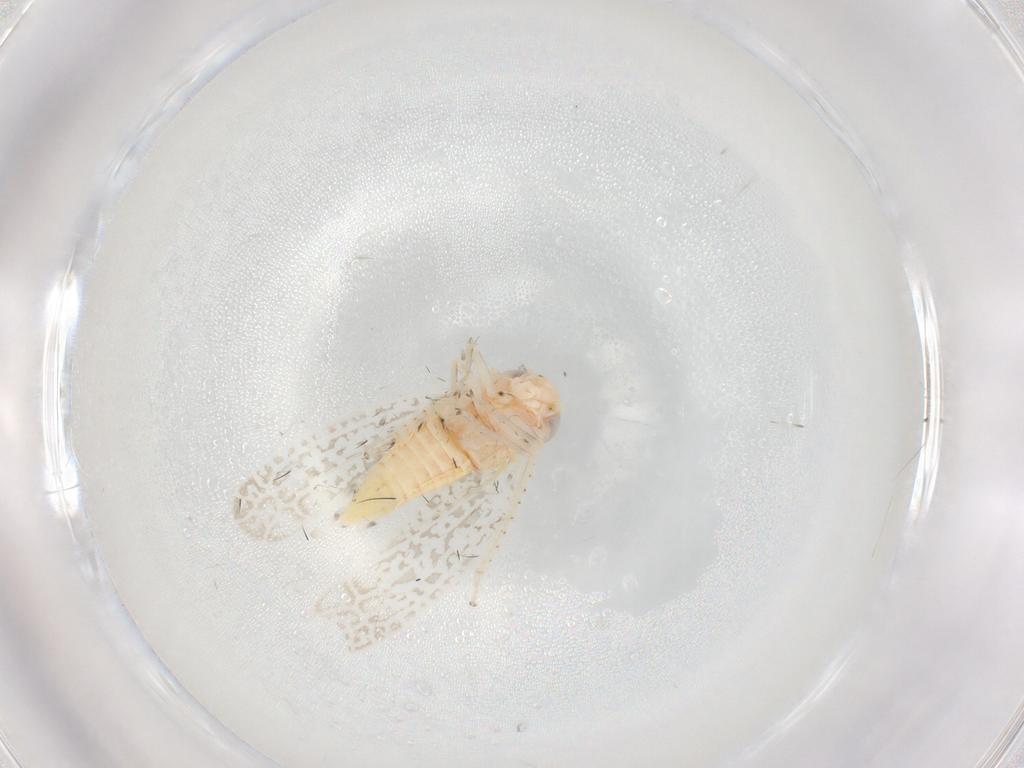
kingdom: Animalia
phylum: Arthropoda
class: Insecta
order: Hemiptera
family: Cicadellidae
